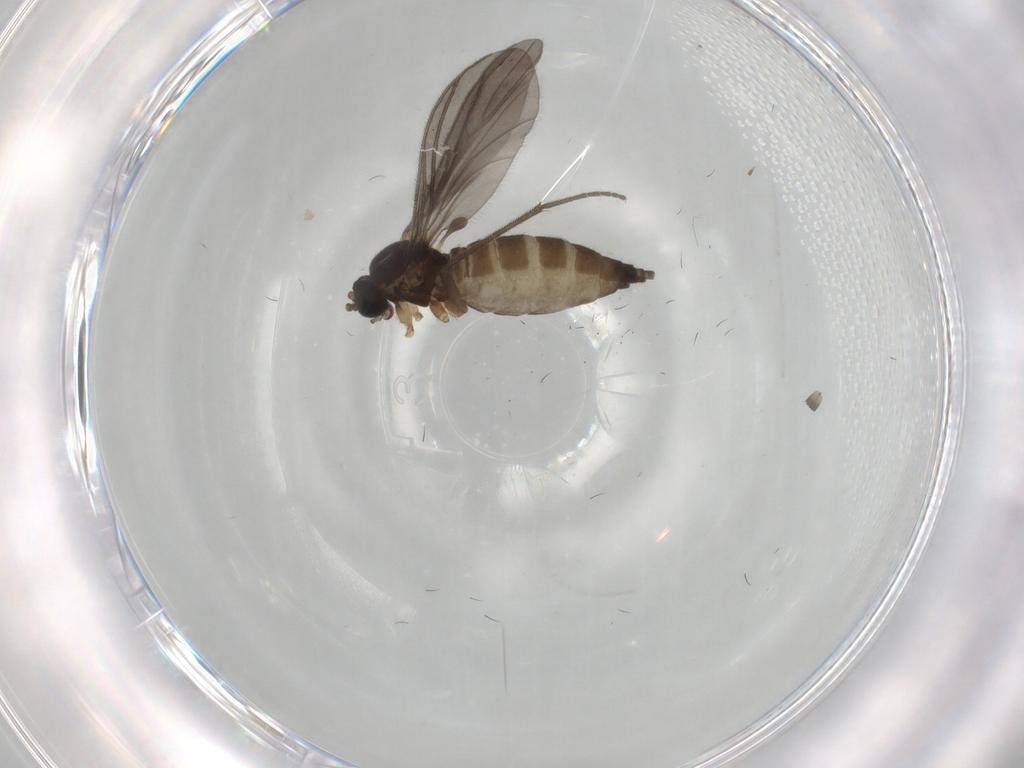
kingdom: Animalia
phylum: Arthropoda
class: Insecta
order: Diptera
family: Sciaridae
